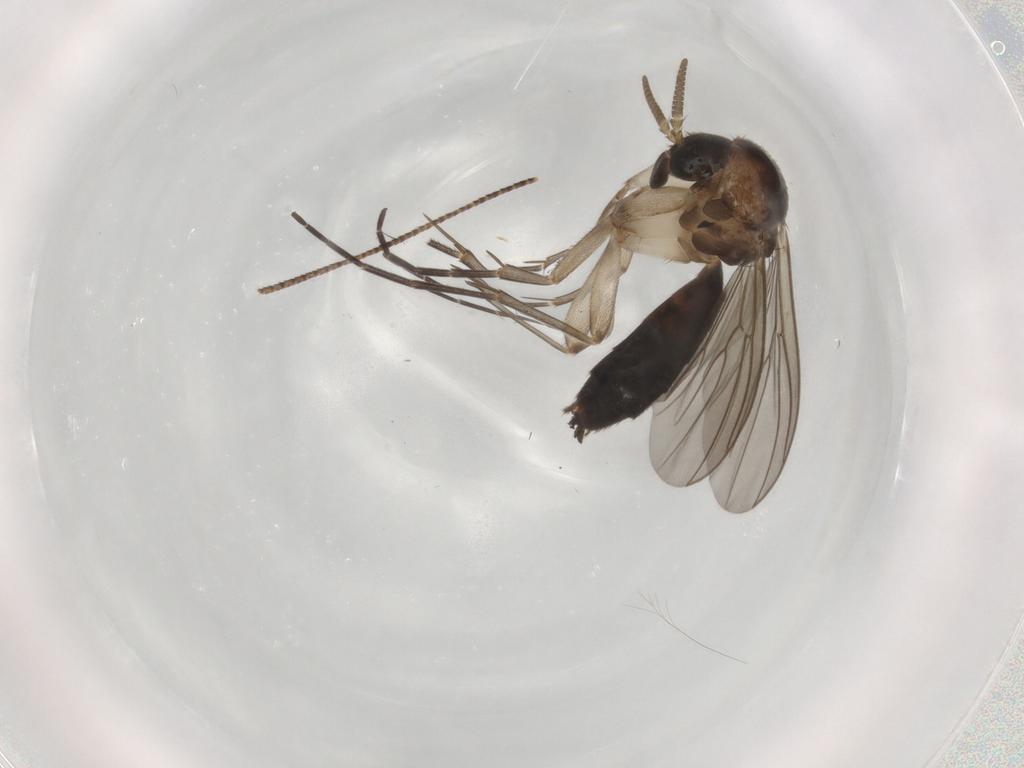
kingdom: Animalia
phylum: Arthropoda
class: Insecta
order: Diptera
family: Mycetophilidae
